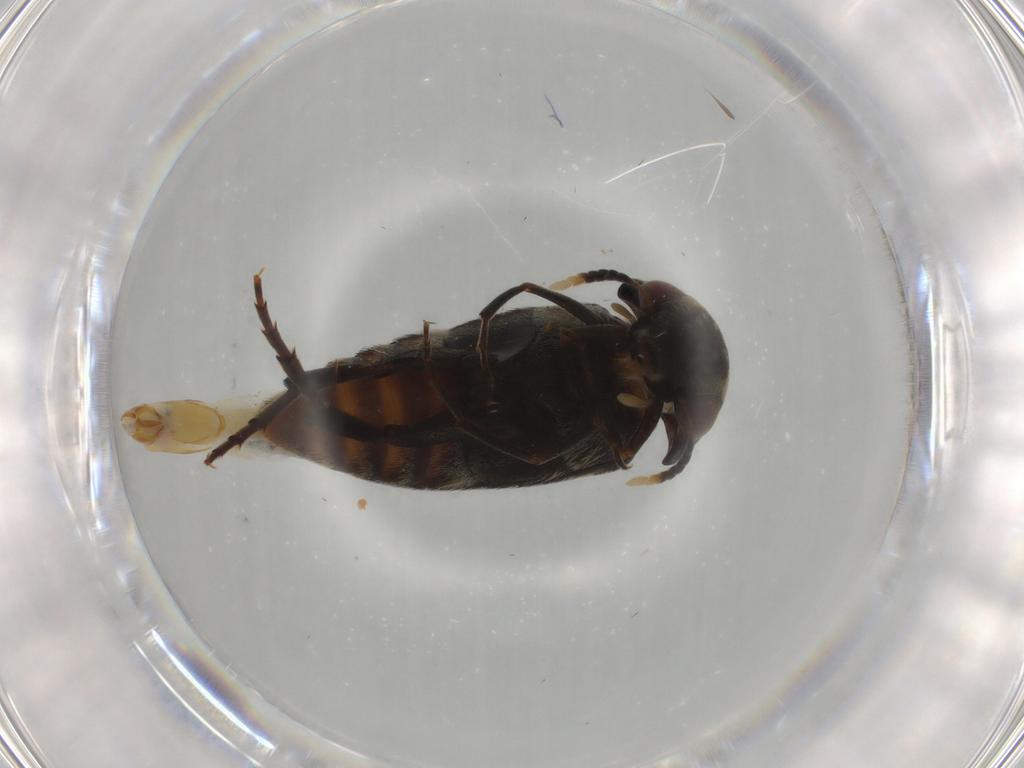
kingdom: Animalia
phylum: Arthropoda
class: Insecta
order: Coleoptera
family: Mordellidae
